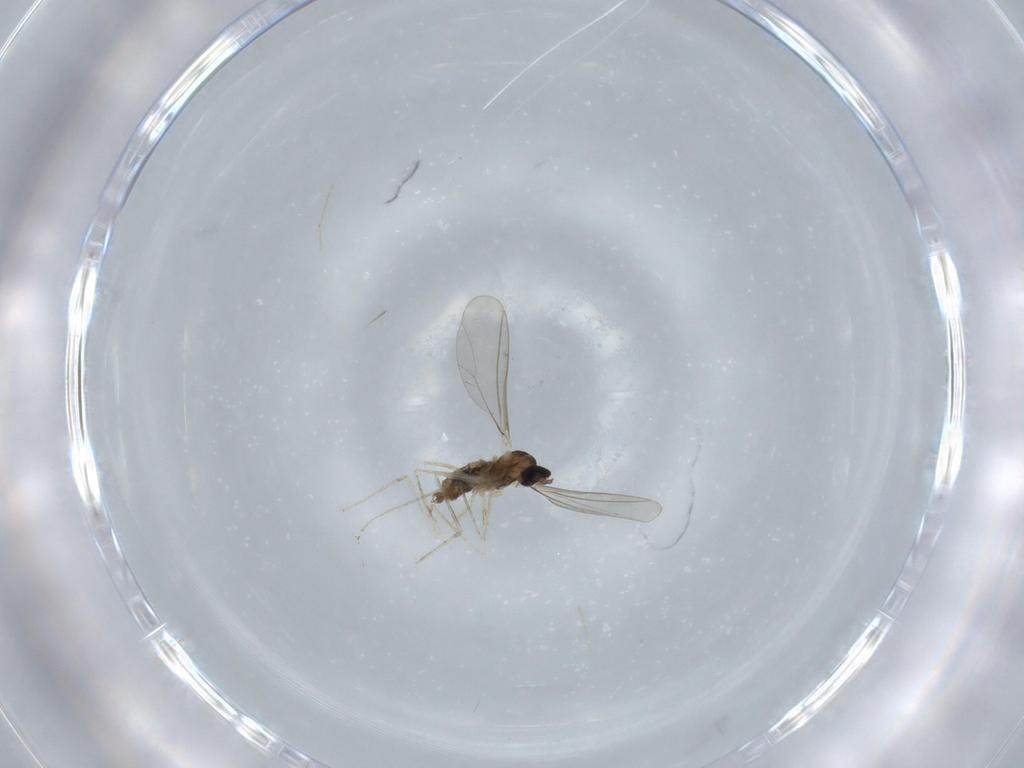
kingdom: Animalia
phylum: Arthropoda
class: Insecta
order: Diptera
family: Cecidomyiidae
